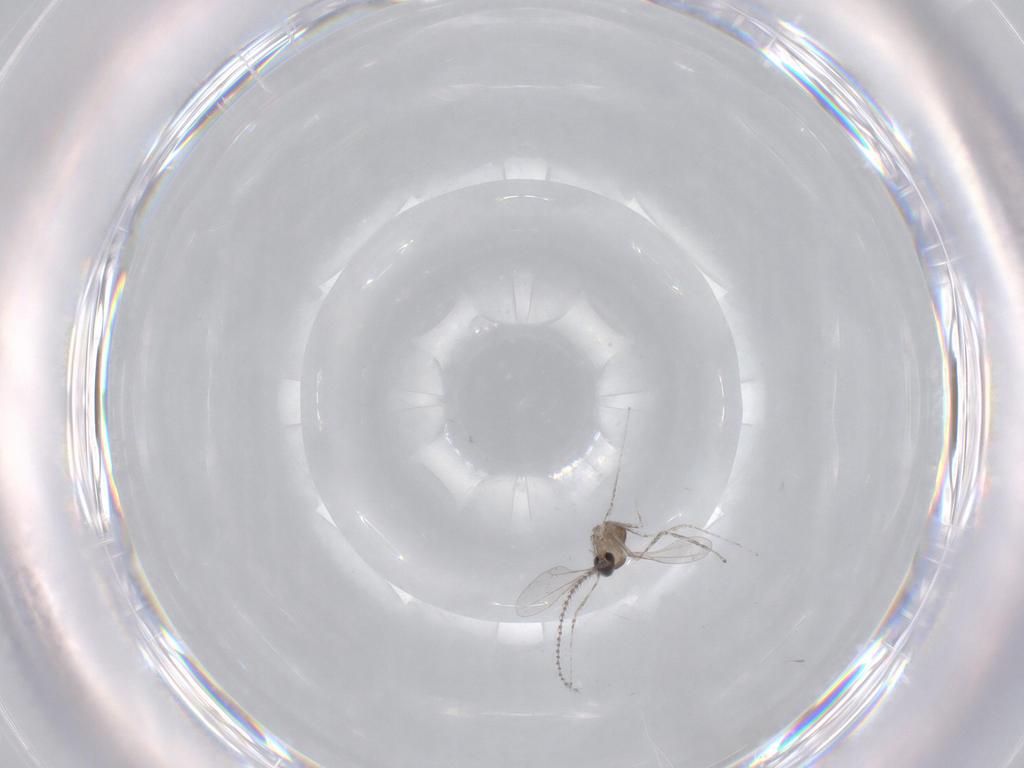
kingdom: Animalia
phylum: Arthropoda
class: Insecta
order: Diptera
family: Cecidomyiidae
